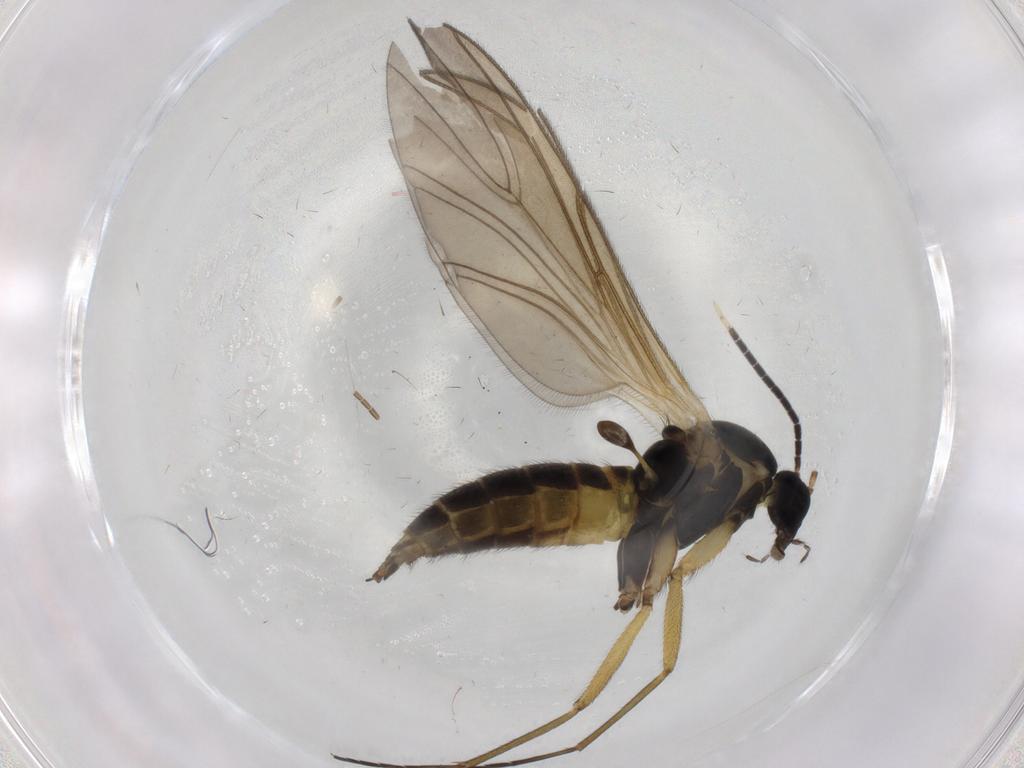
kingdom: Animalia
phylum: Arthropoda
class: Insecta
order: Diptera
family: Sciaridae
